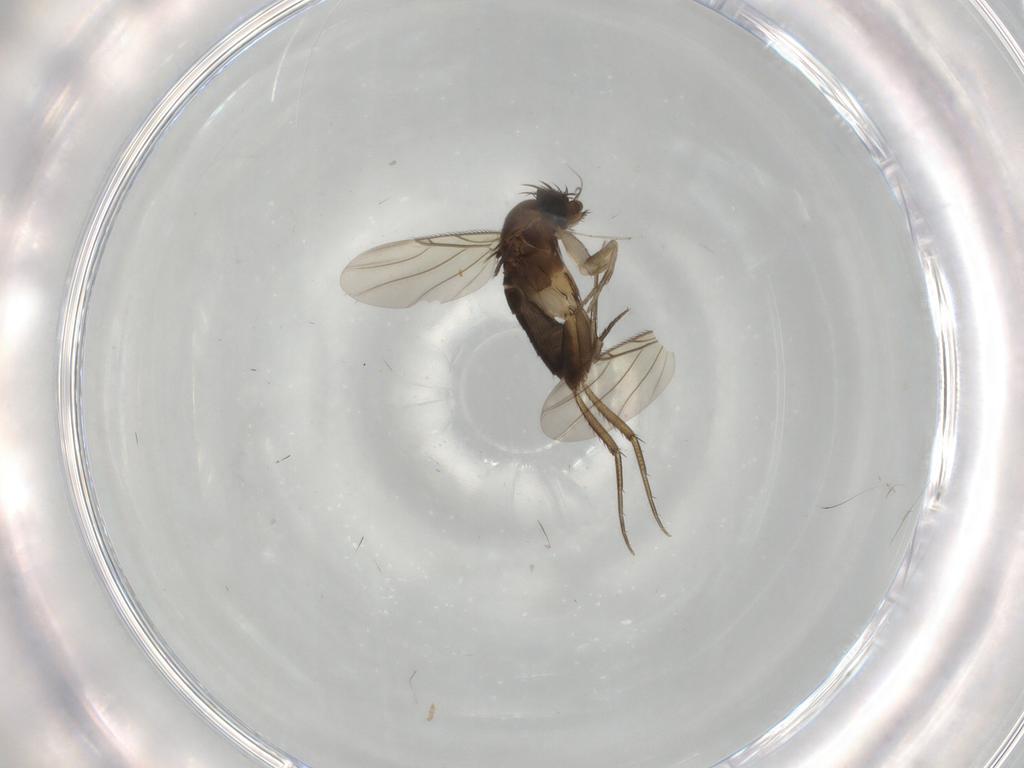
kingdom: Animalia
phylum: Arthropoda
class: Insecta
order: Diptera
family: Phoridae
